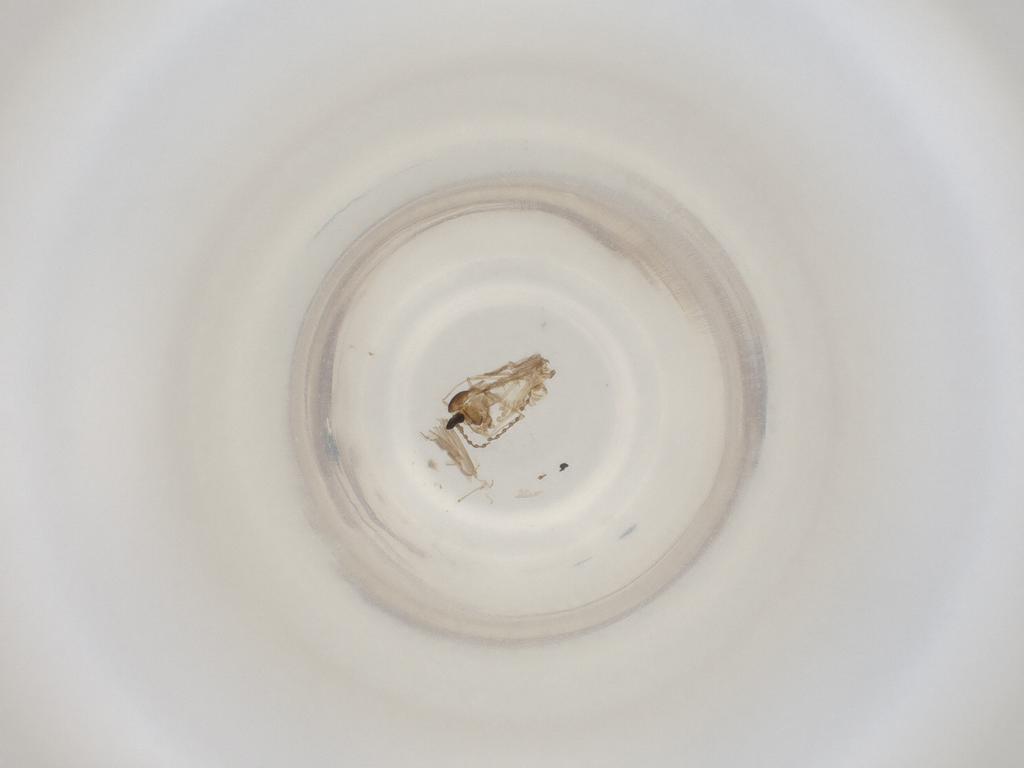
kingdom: Animalia
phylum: Arthropoda
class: Insecta
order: Diptera
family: Cecidomyiidae
